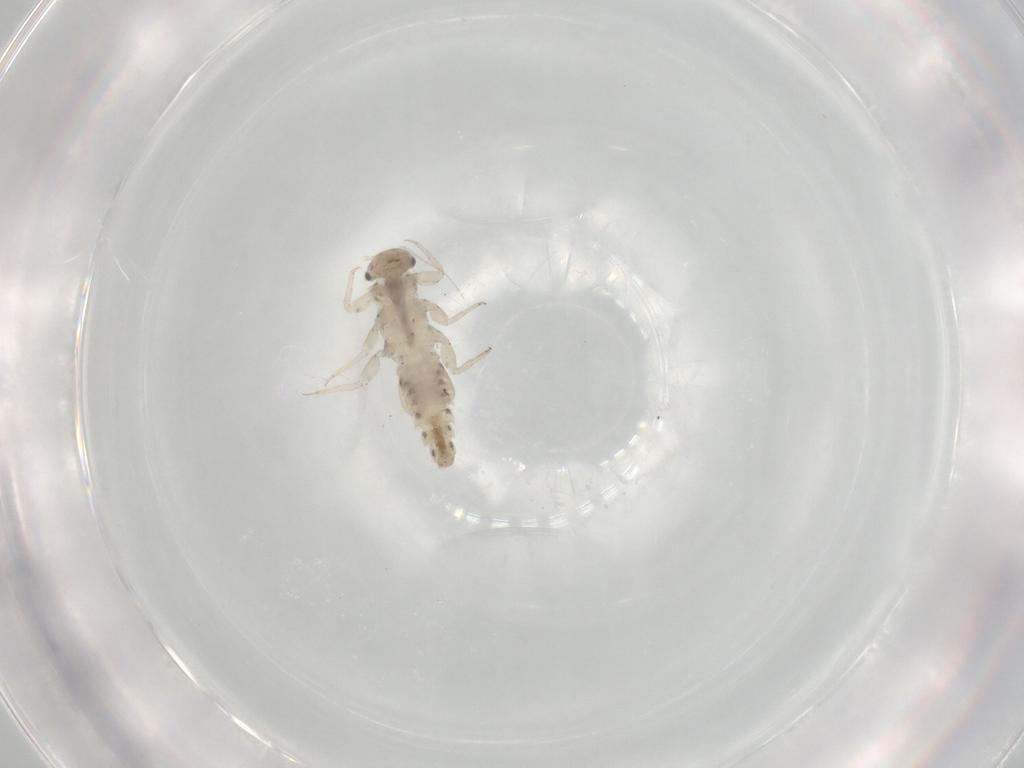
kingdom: Animalia
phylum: Arthropoda
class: Insecta
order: Ephemeroptera
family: Caenidae
